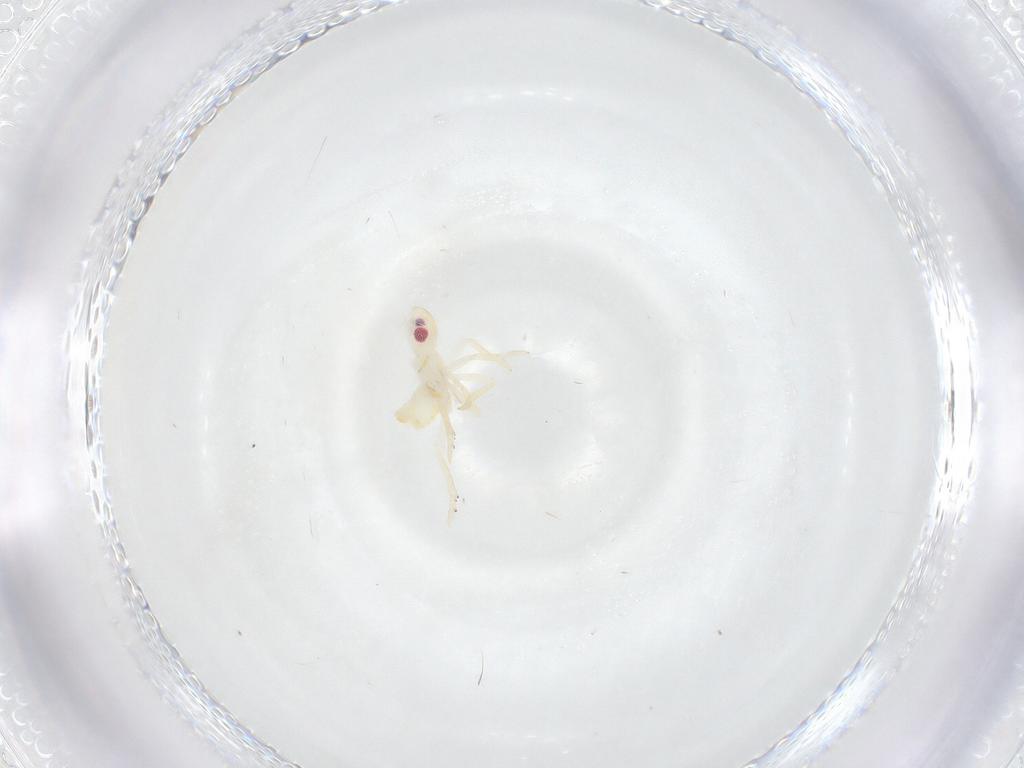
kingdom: Animalia
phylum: Arthropoda
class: Insecta
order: Hemiptera
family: Flatidae
